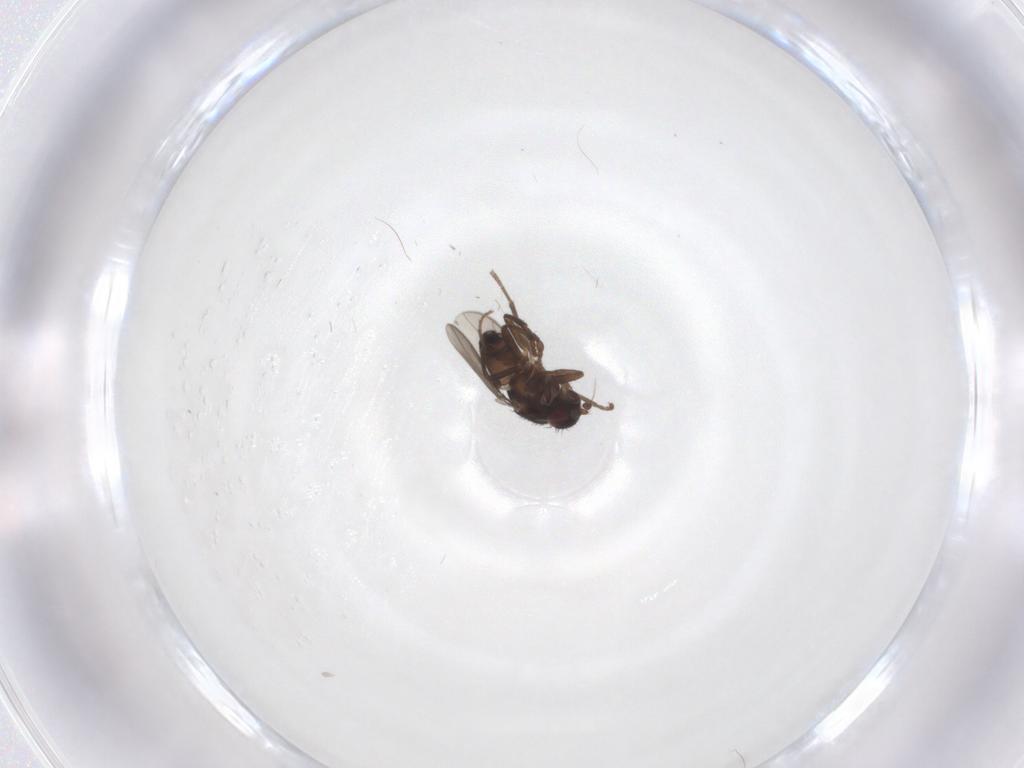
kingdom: Animalia
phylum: Arthropoda
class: Insecta
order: Diptera
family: Sphaeroceridae
